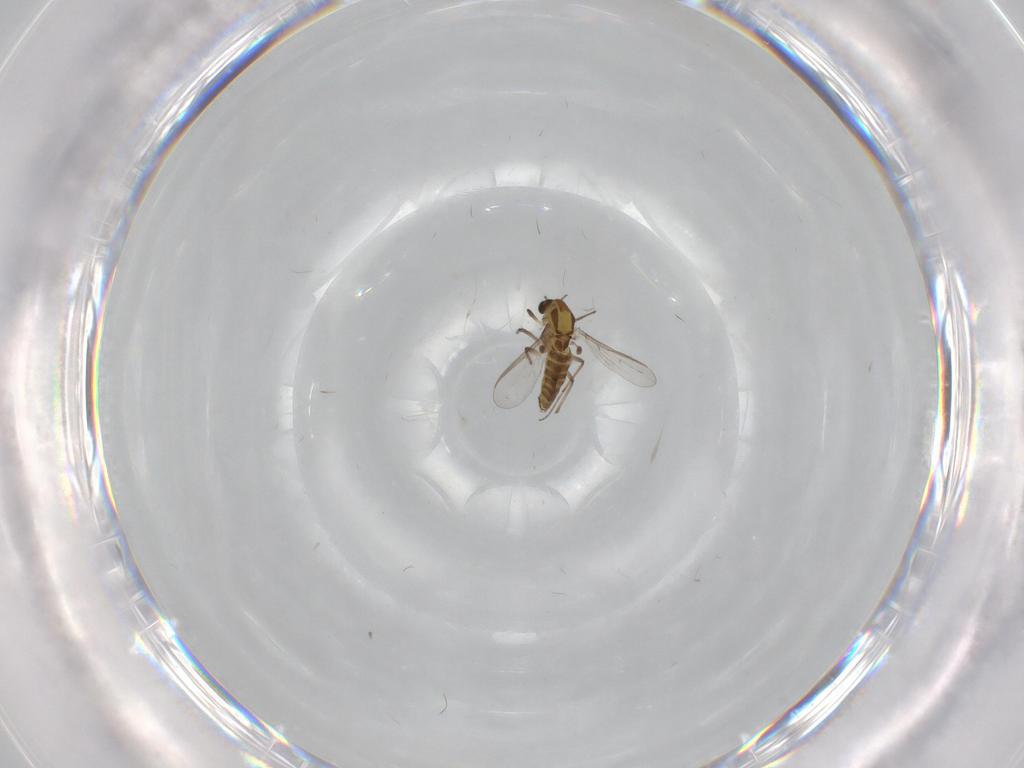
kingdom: Animalia
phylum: Arthropoda
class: Insecta
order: Diptera
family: Chironomidae
